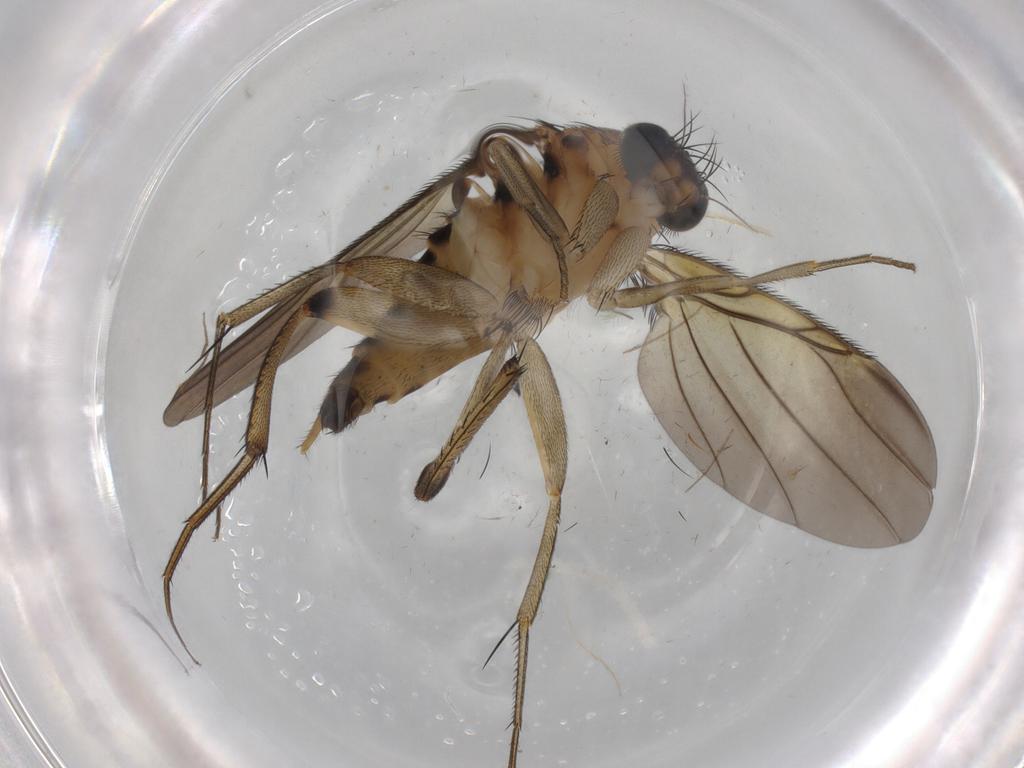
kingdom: Animalia
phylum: Arthropoda
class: Insecta
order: Diptera
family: Phoridae
